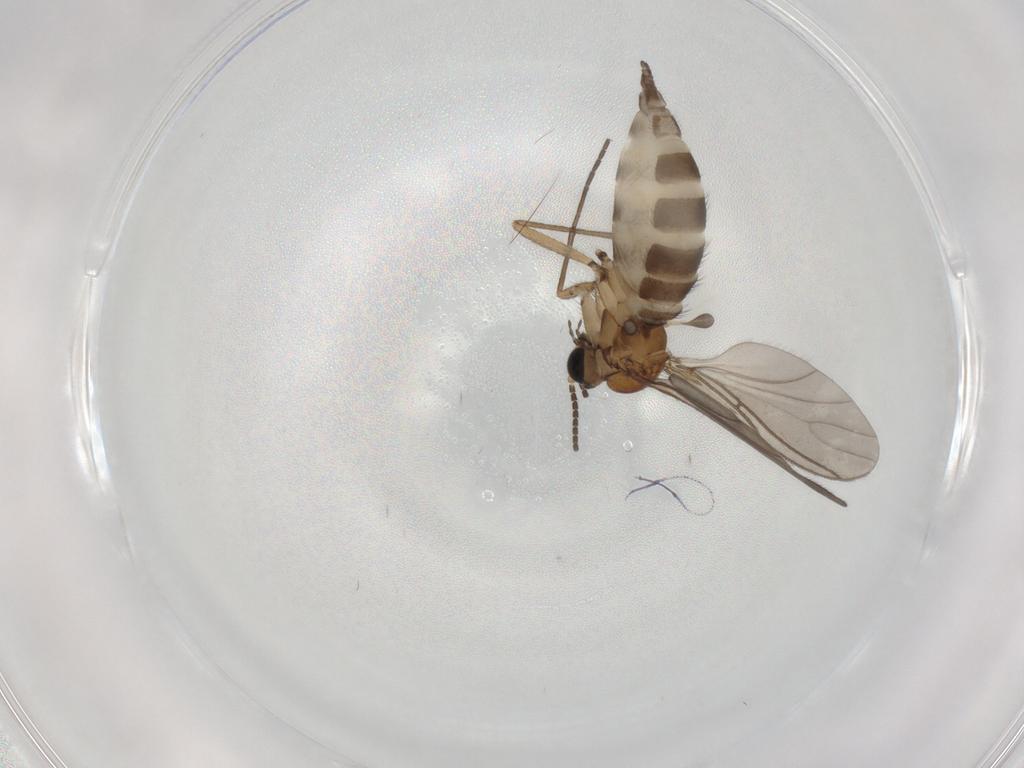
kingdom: Animalia
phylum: Arthropoda
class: Insecta
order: Diptera
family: Sciaridae
